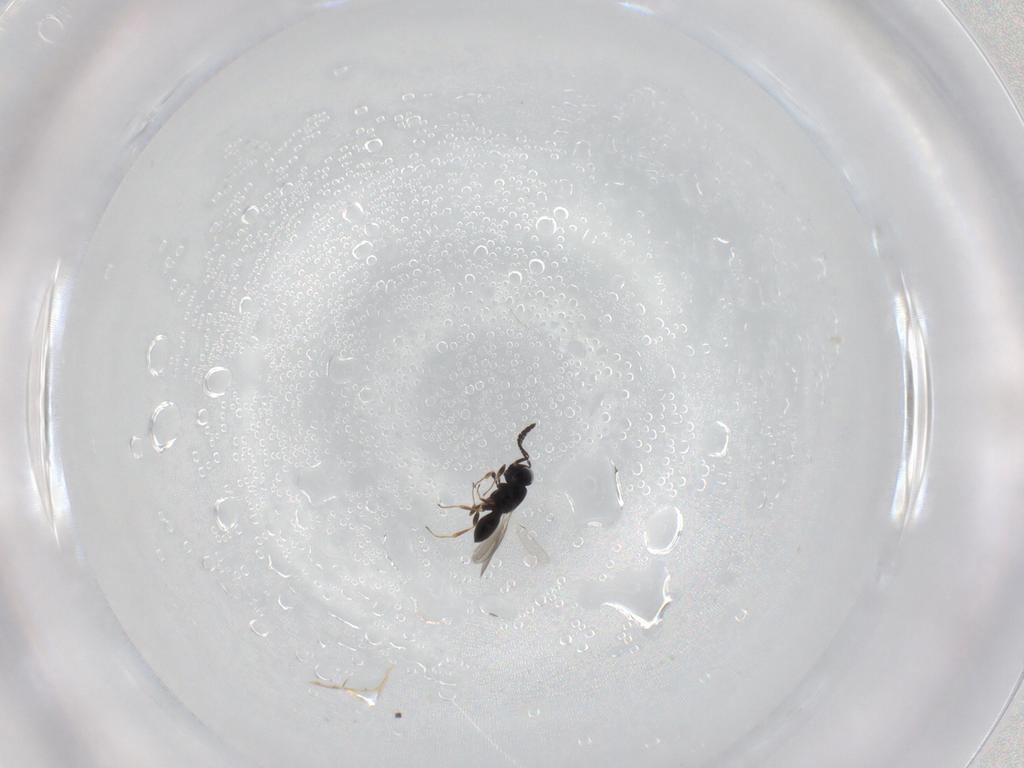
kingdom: Animalia
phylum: Arthropoda
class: Insecta
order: Hymenoptera
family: Scelionidae
